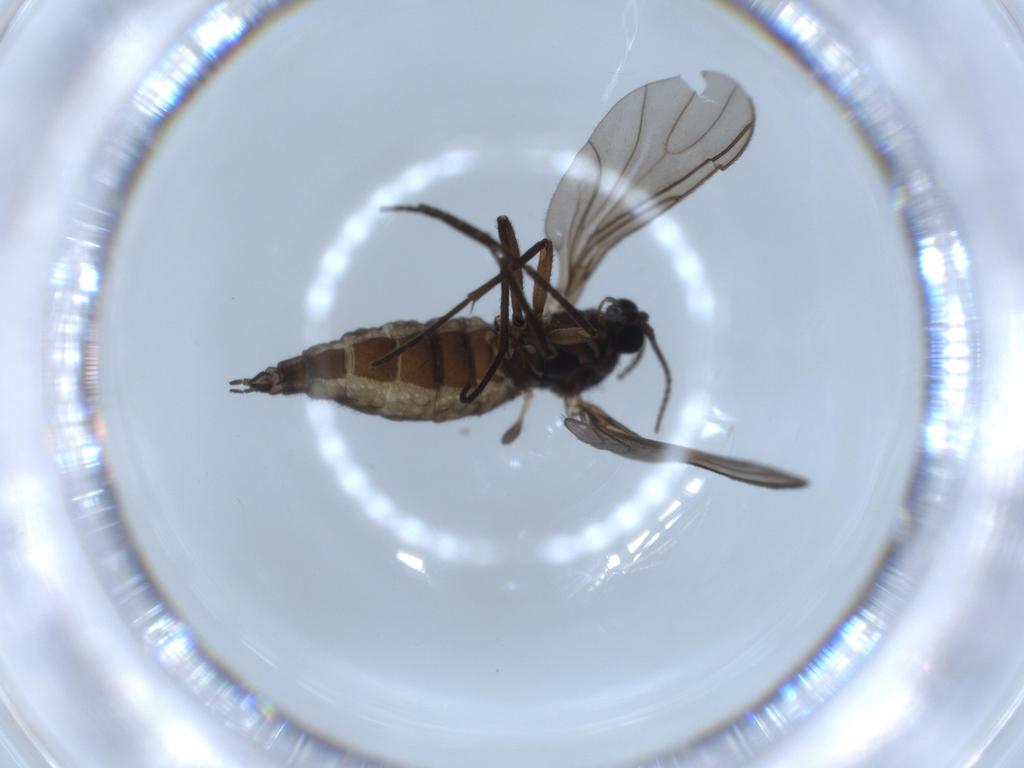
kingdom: Animalia
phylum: Arthropoda
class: Insecta
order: Diptera
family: Sciaridae
